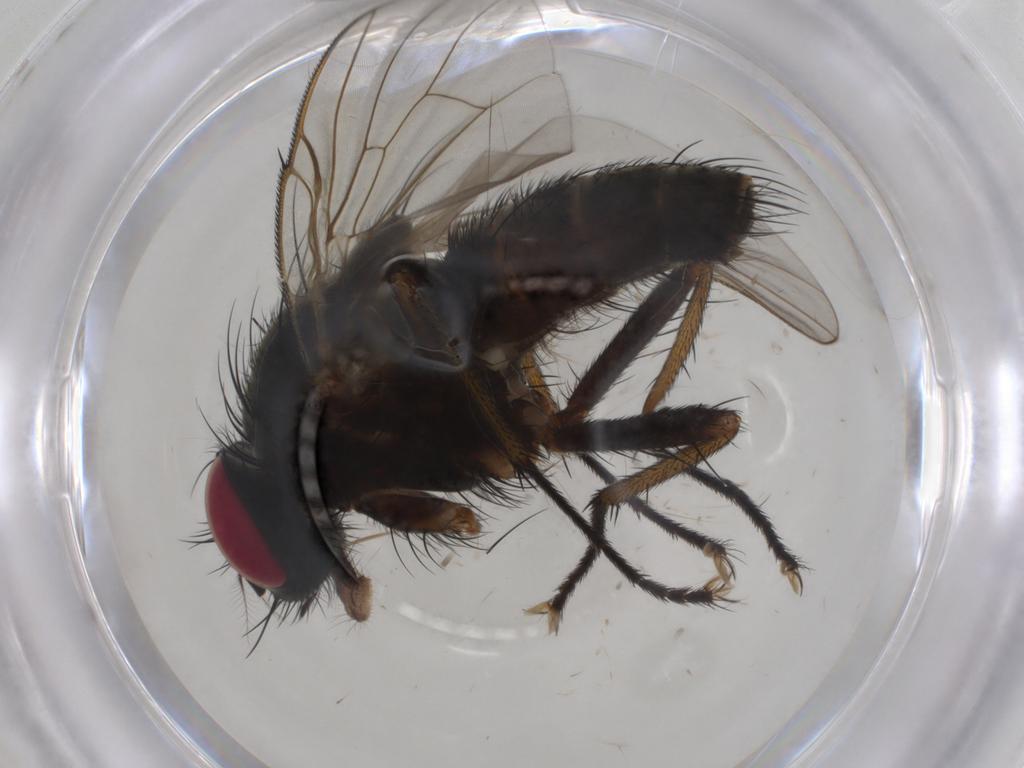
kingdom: Animalia
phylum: Arthropoda
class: Insecta
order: Diptera
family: Muscidae
